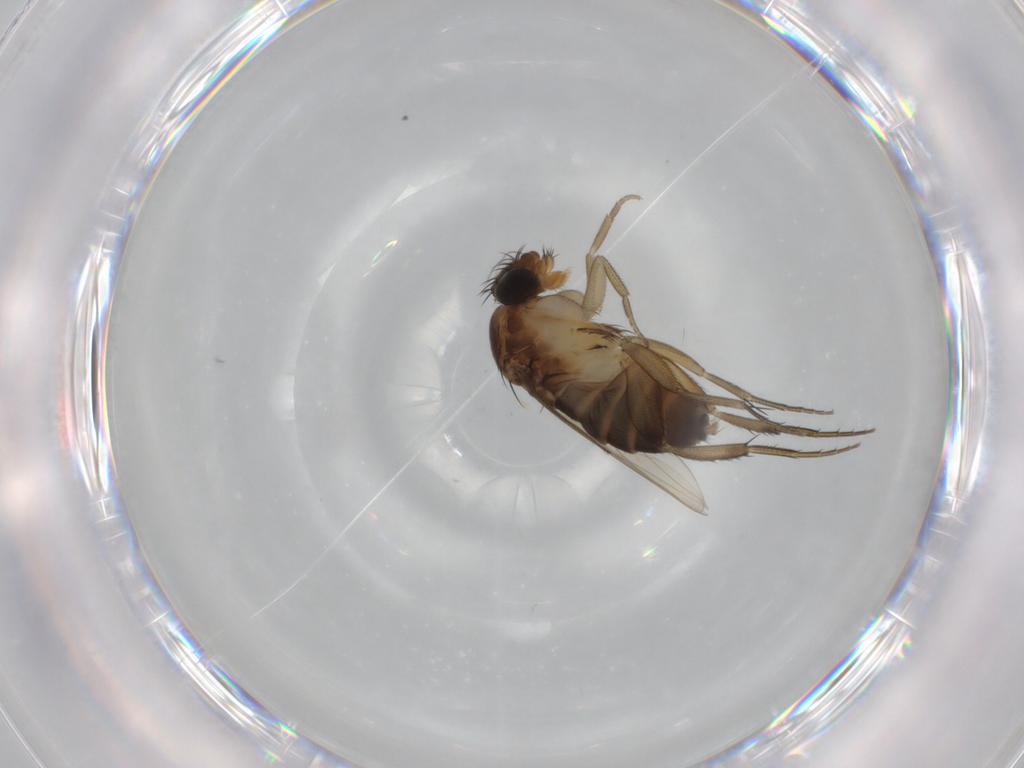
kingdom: Animalia
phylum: Arthropoda
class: Insecta
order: Diptera
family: Phoridae
